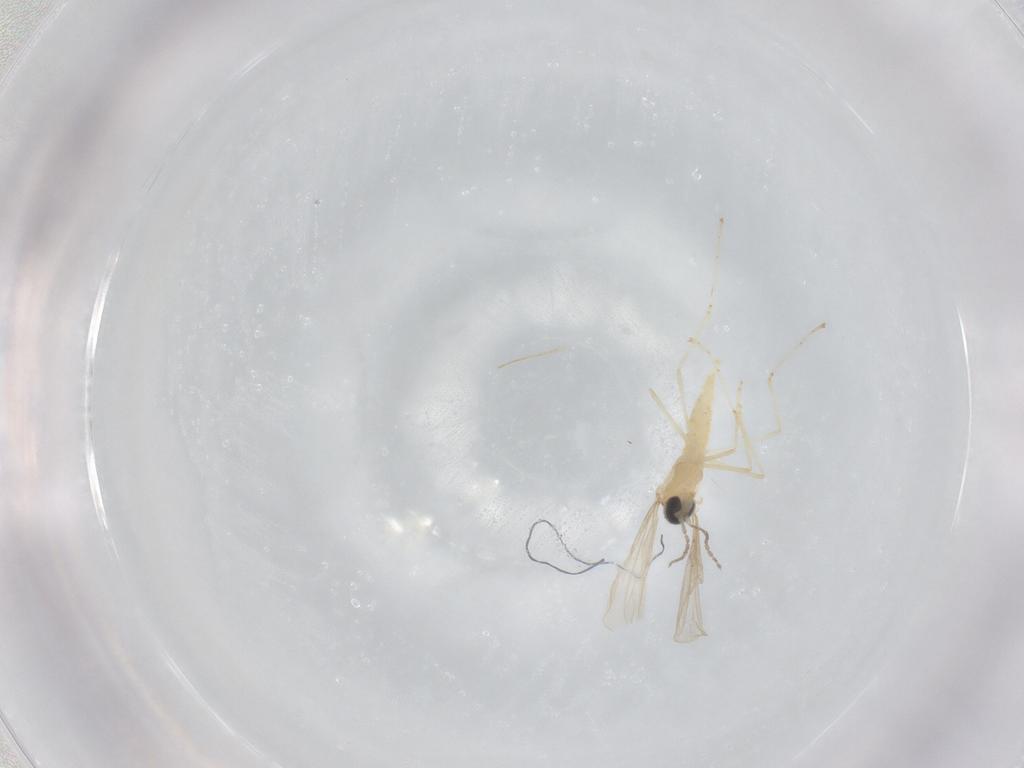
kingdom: Animalia
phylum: Arthropoda
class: Insecta
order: Diptera
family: Cecidomyiidae
